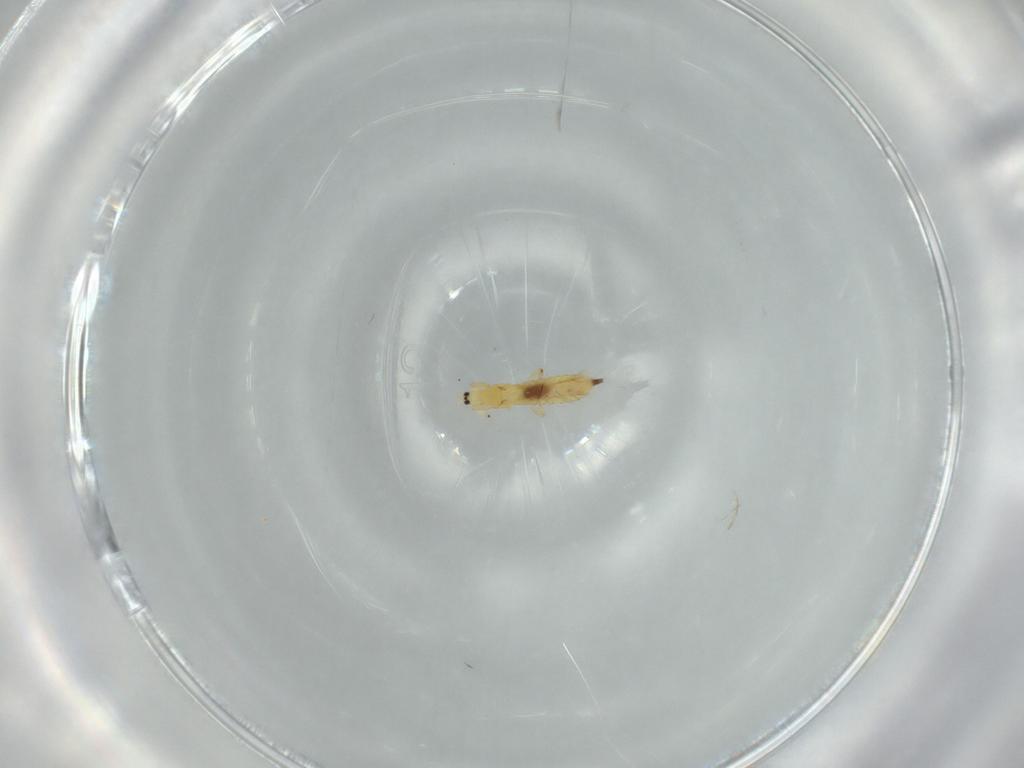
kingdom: Animalia
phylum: Arthropoda
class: Insecta
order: Thysanoptera
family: Phlaeothripidae
